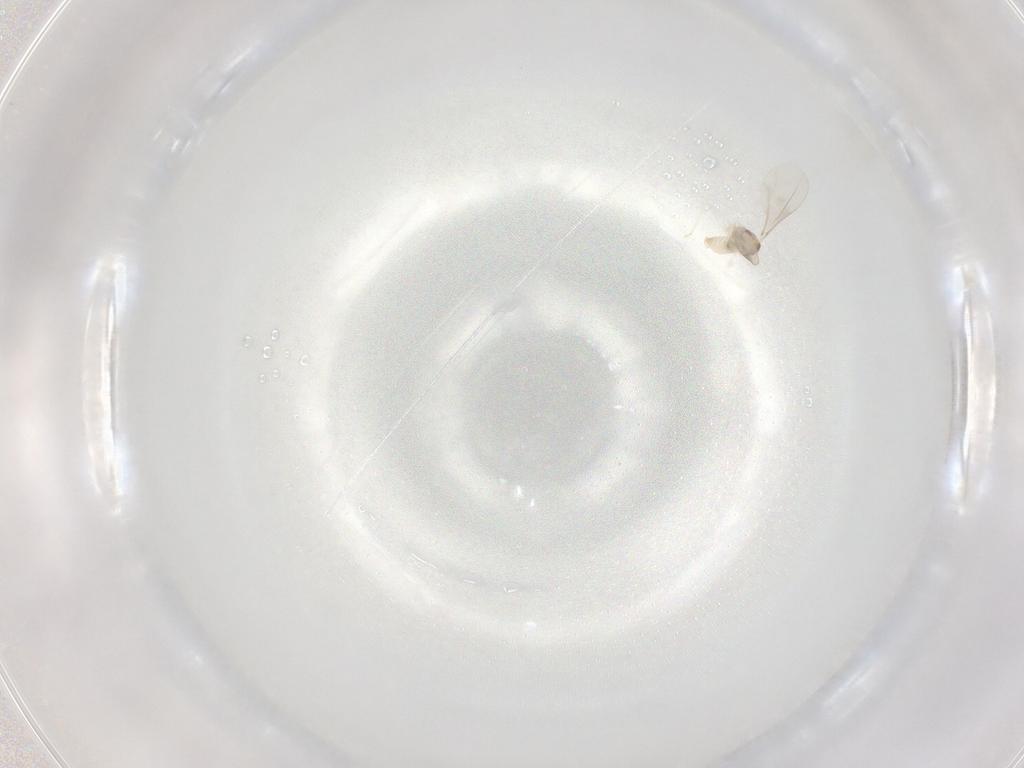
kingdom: Animalia
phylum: Arthropoda
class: Insecta
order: Diptera
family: Cecidomyiidae
